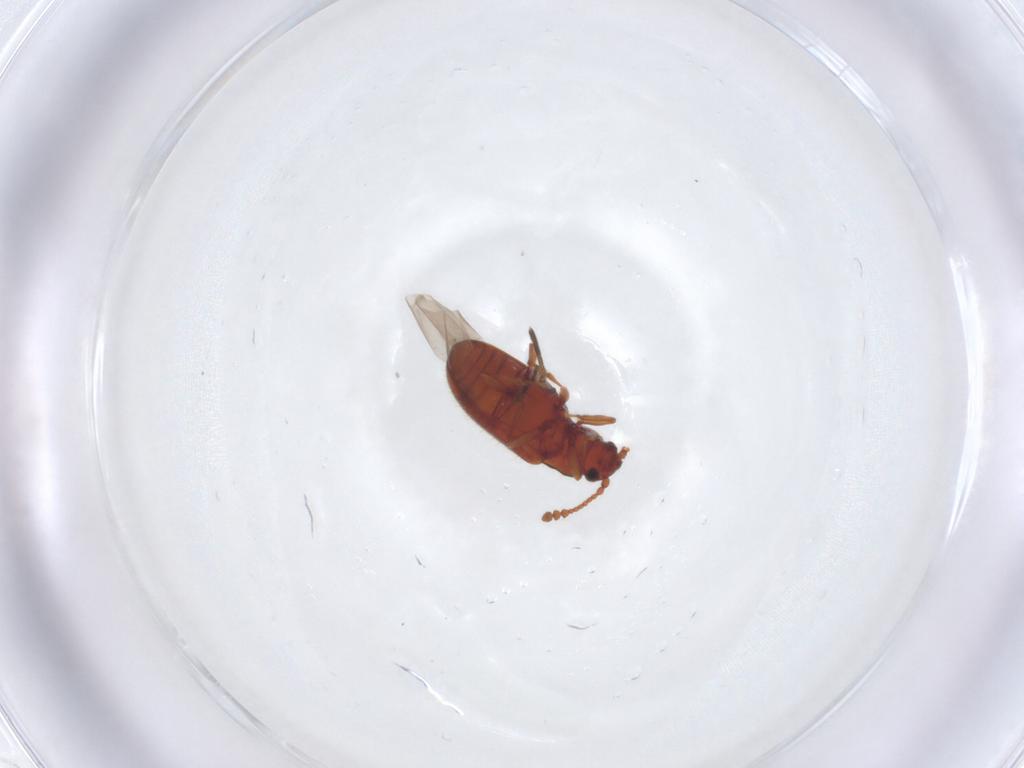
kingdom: Animalia
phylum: Arthropoda
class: Insecta
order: Coleoptera
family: Cryptophagidae
